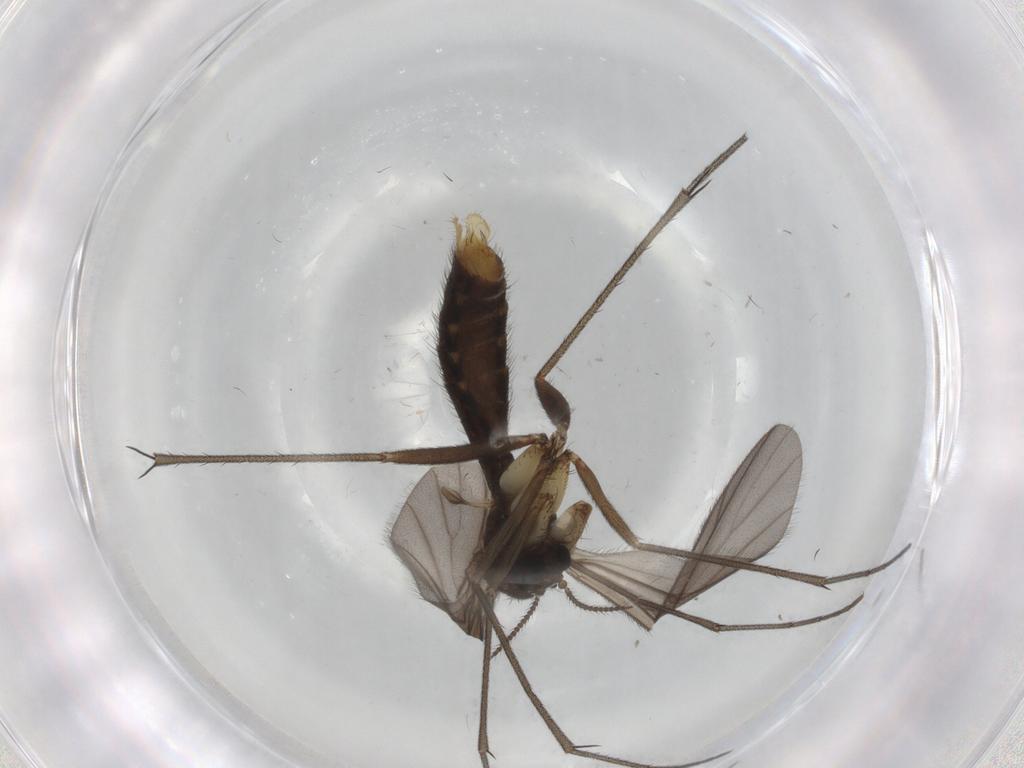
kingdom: Animalia
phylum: Arthropoda
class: Insecta
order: Diptera
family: Ditomyiidae
